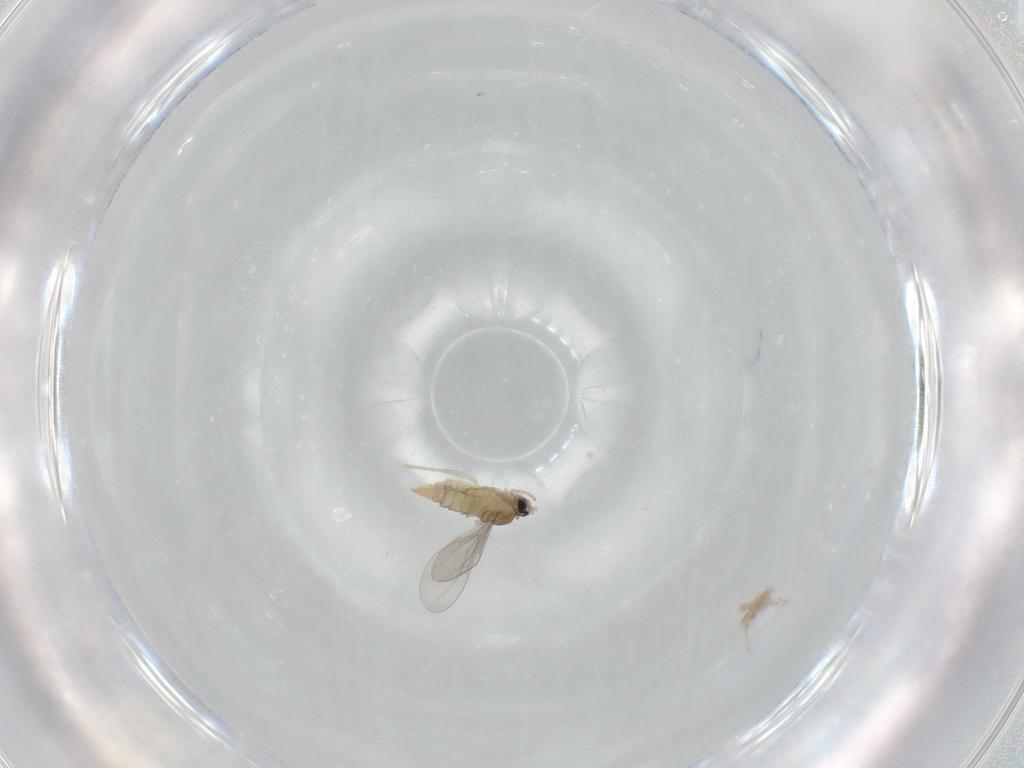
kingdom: Animalia
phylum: Arthropoda
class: Insecta
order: Diptera
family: Cecidomyiidae
